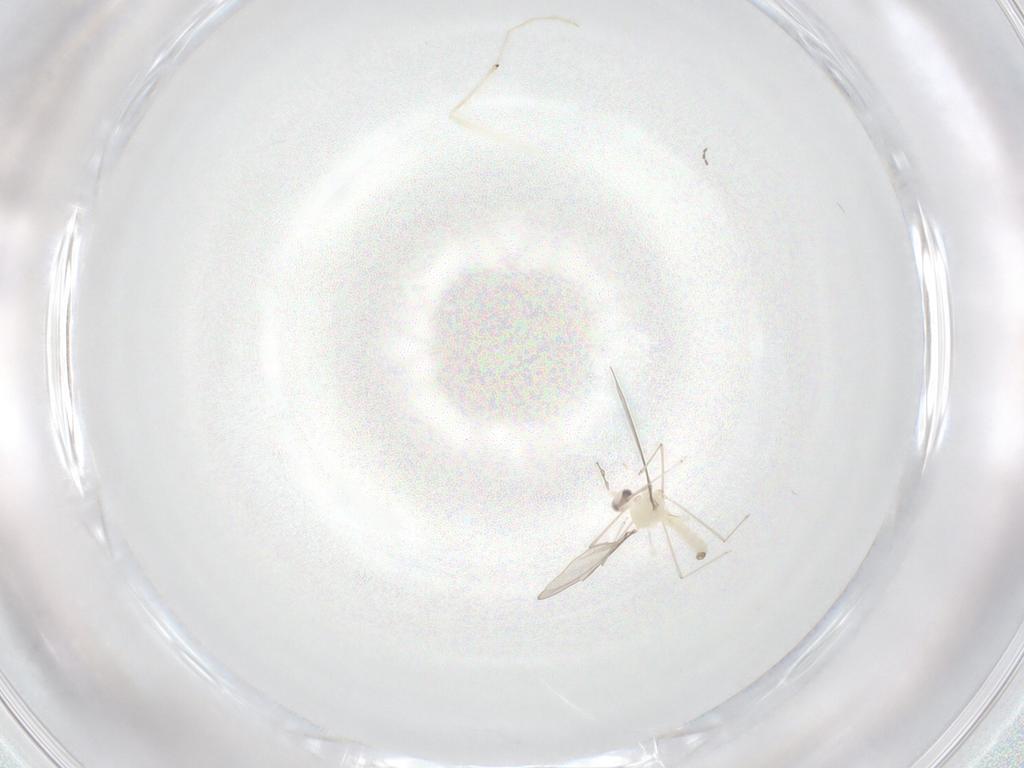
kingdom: Animalia
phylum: Arthropoda
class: Insecta
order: Diptera
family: Cecidomyiidae
